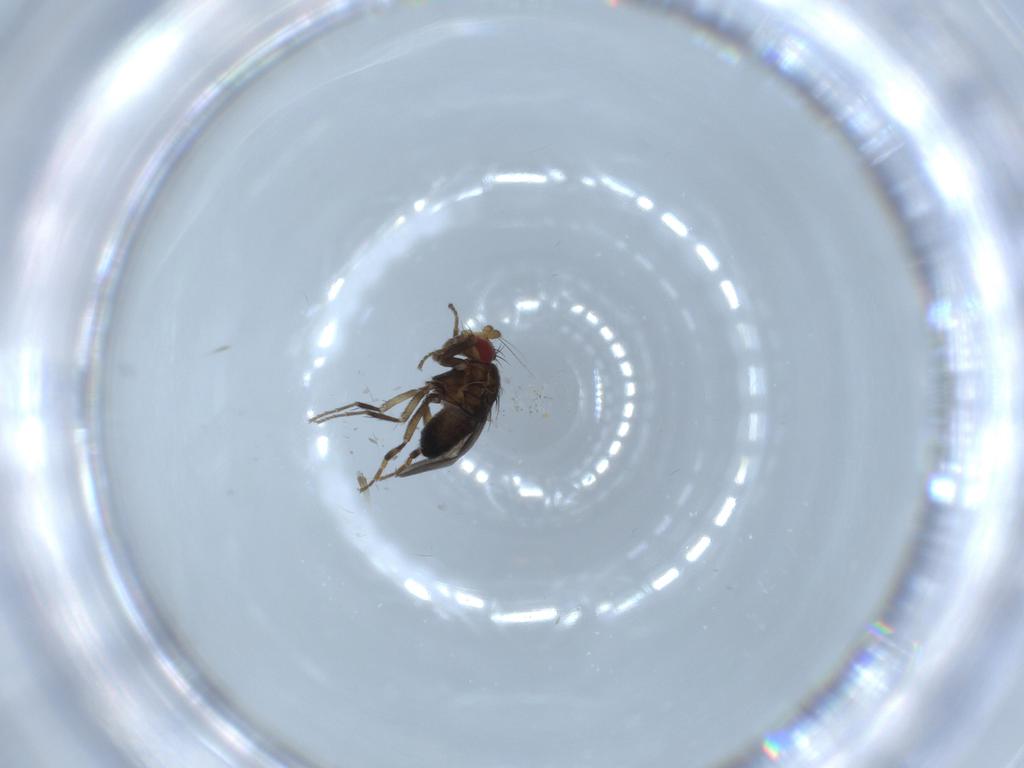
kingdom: Animalia
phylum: Arthropoda
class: Insecta
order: Diptera
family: Sphaeroceridae
